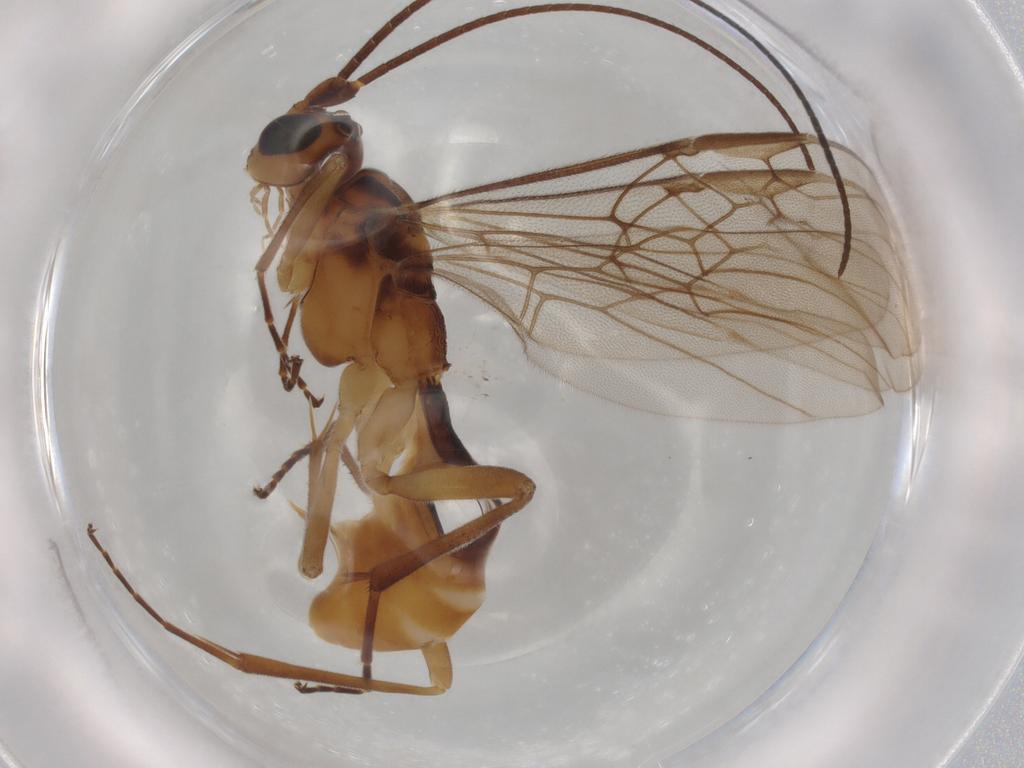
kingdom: Animalia
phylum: Arthropoda
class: Insecta
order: Hymenoptera
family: Braconidae
